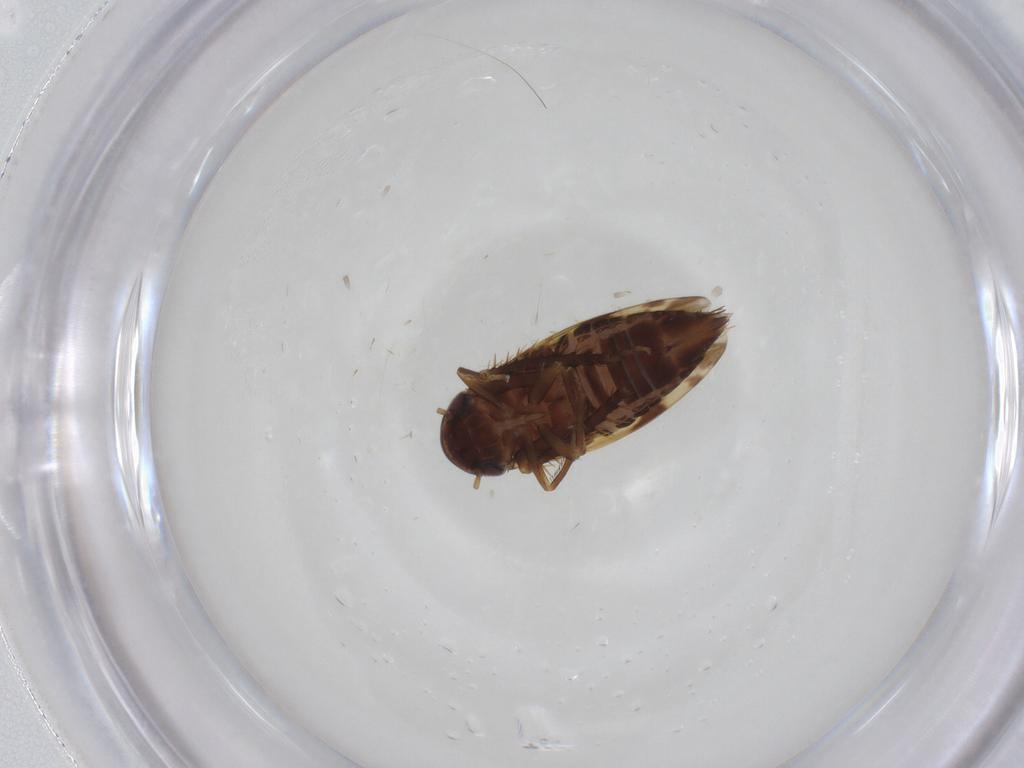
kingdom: Animalia
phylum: Arthropoda
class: Insecta
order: Hemiptera
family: Cicadellidae
